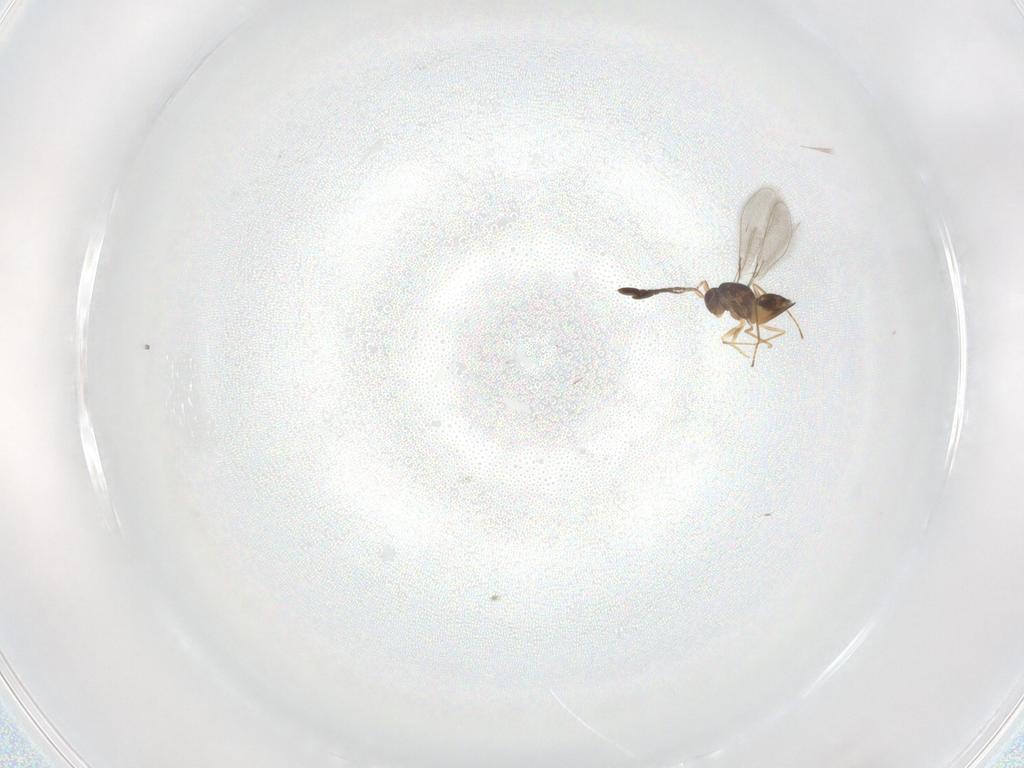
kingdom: Animalia
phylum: Arthropoda
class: Insecta
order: Hymenoptera
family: Mymaridae
